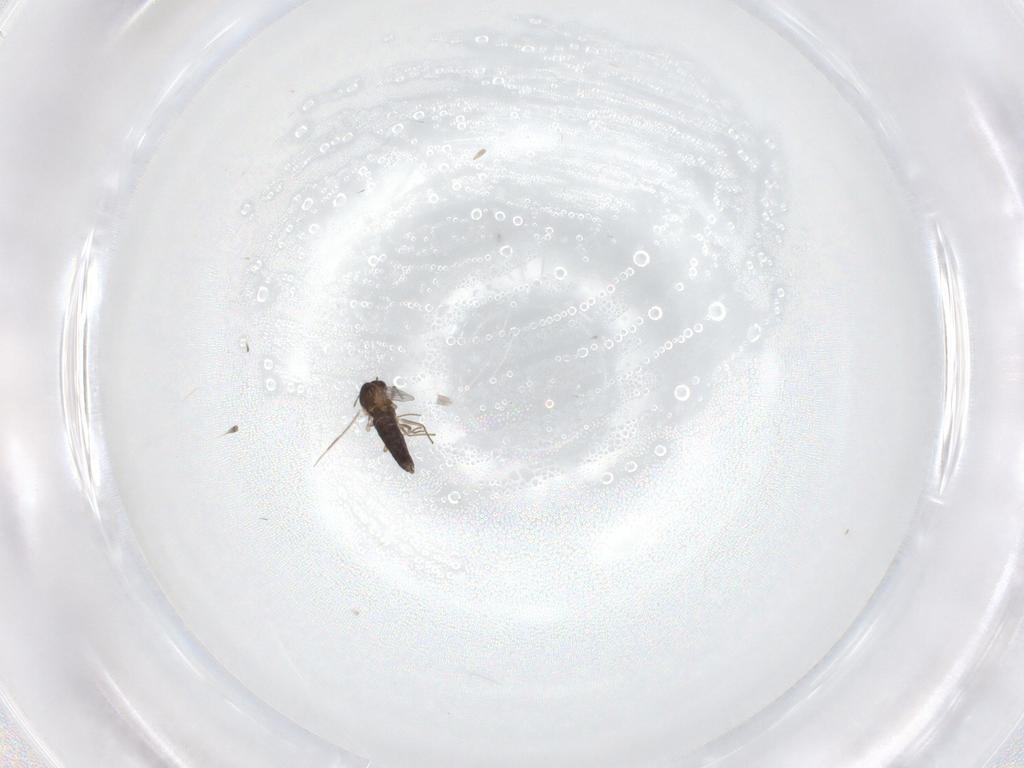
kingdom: Animalia
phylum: Arthropoda
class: Insecta
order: Diptera
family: Chironomidae
